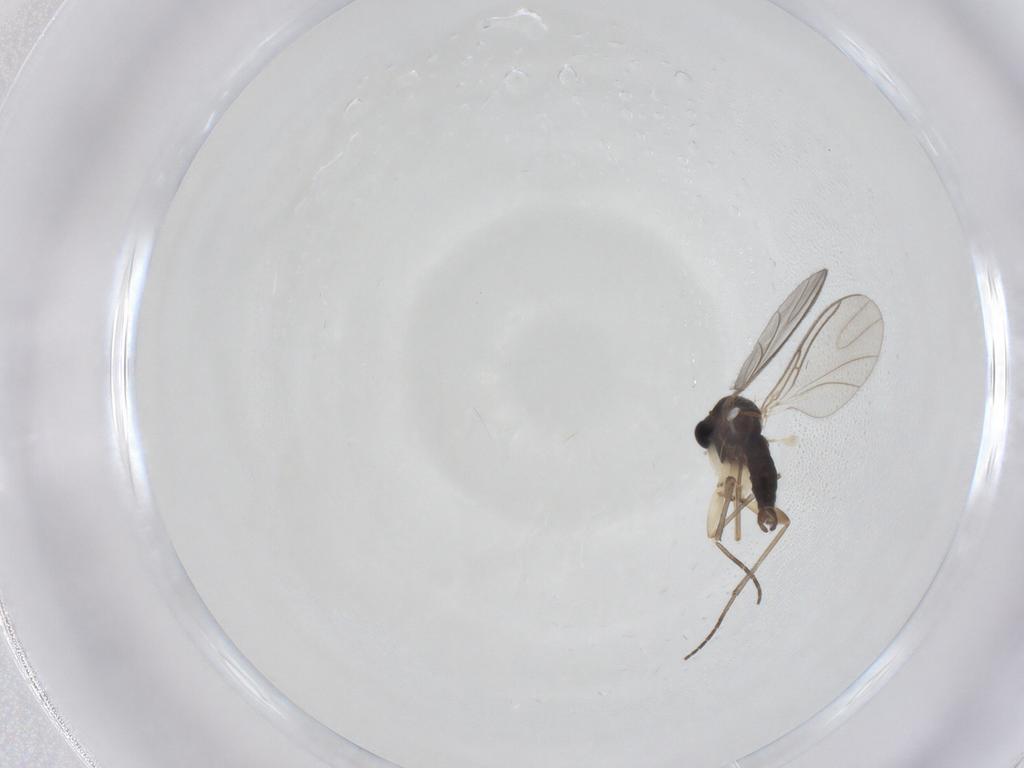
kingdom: Animalia
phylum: Arthropoda
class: Insecta
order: Diptera
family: Sciaridae
